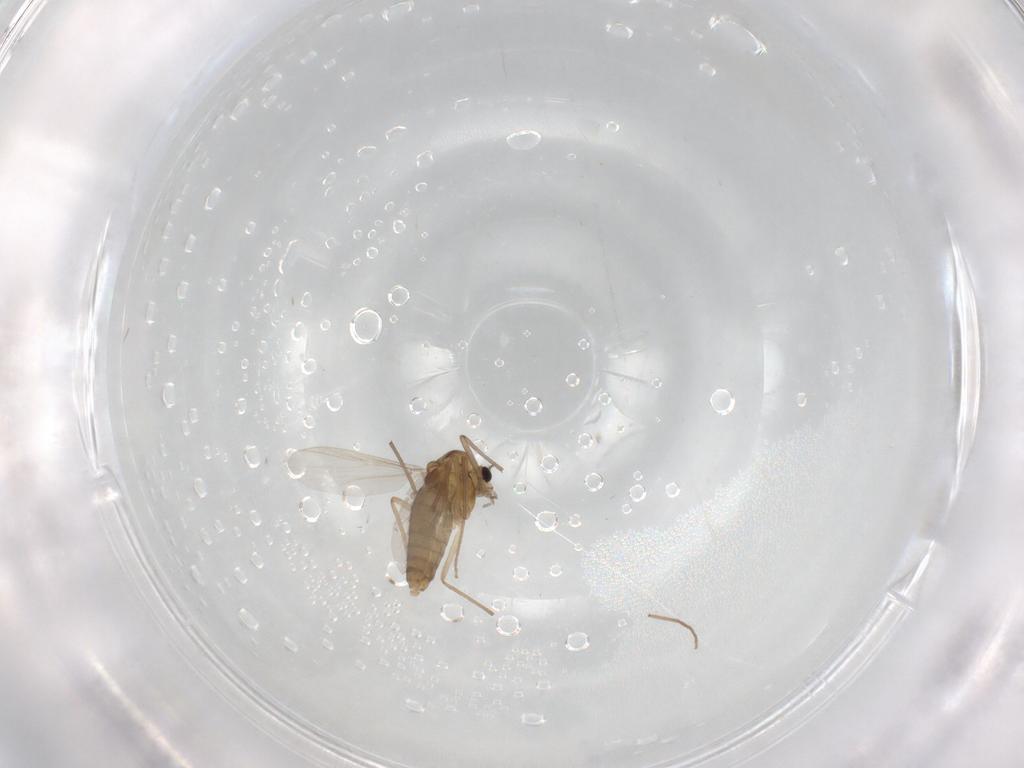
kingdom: Animalia
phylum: Arthropoda
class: Insecta
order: Diptera
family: Chironomidae
